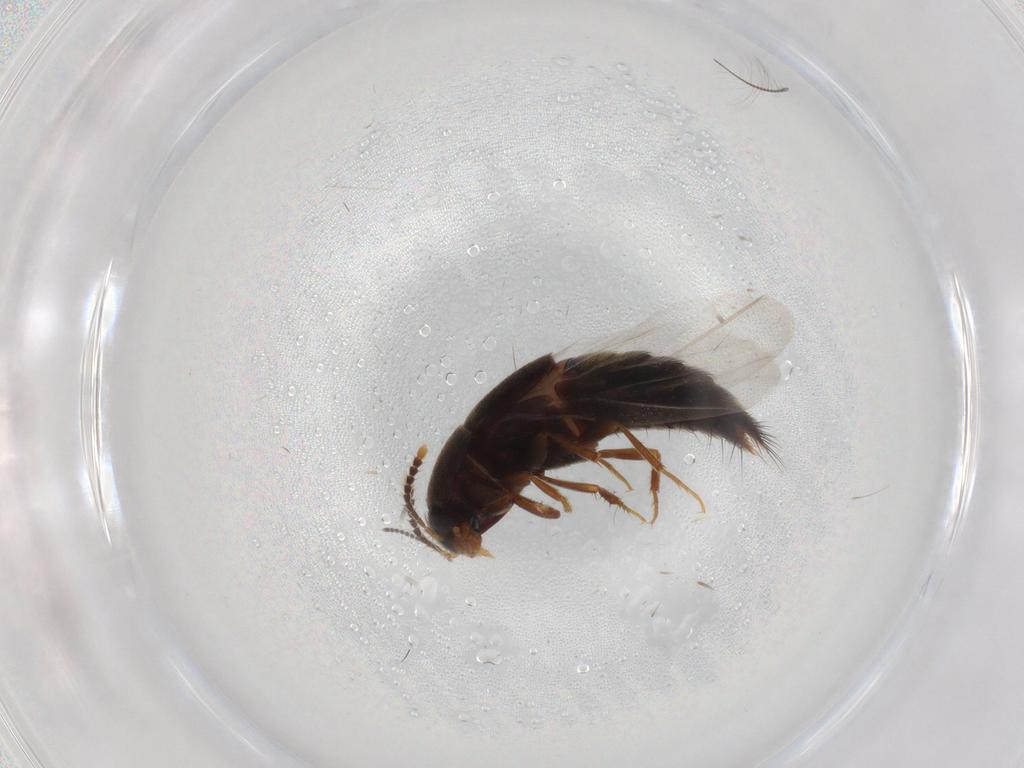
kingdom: Animalia
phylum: Arthropoda
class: Insecta
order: Coleoptera
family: Staphylinidae
